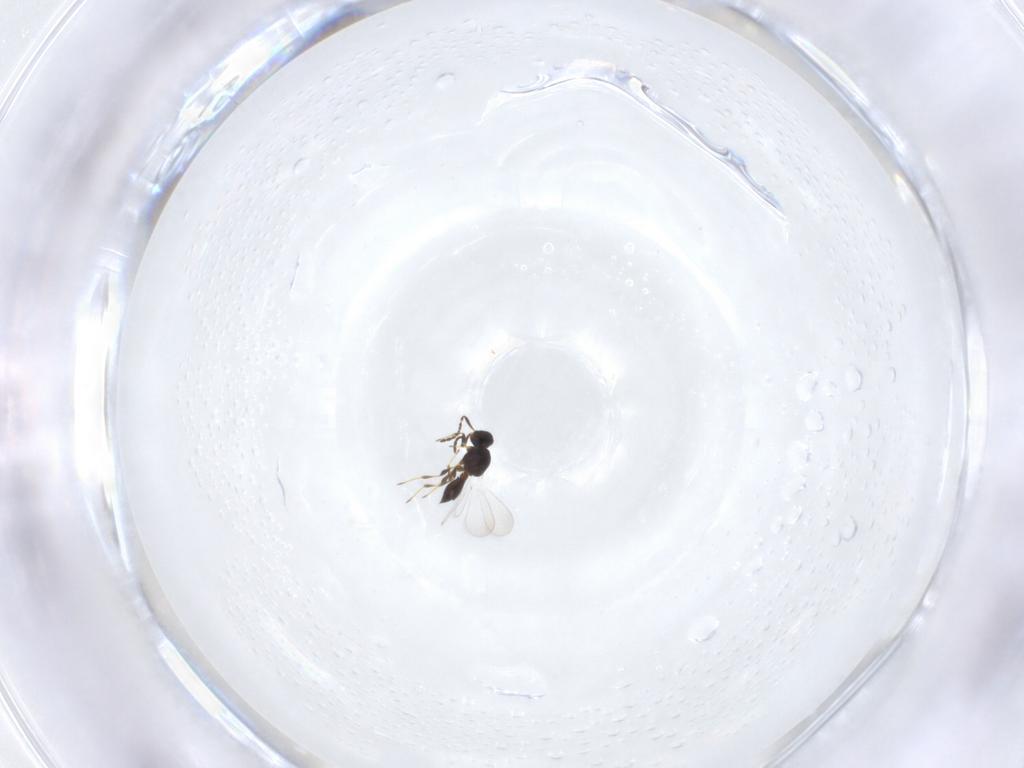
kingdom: Animalia
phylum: Arthropoda
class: Insecta
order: Hymenoptera
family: Platygastridae
